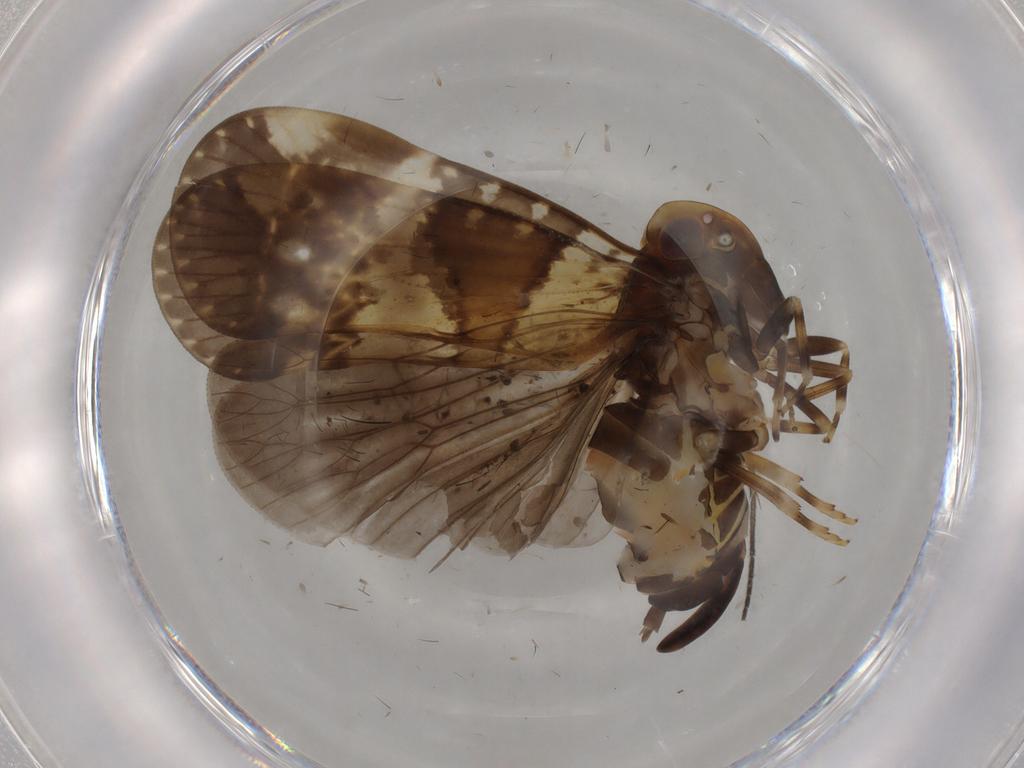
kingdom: Animalia
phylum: Arthropoda
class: Insecta
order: Hemiptera
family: Cixiidae
